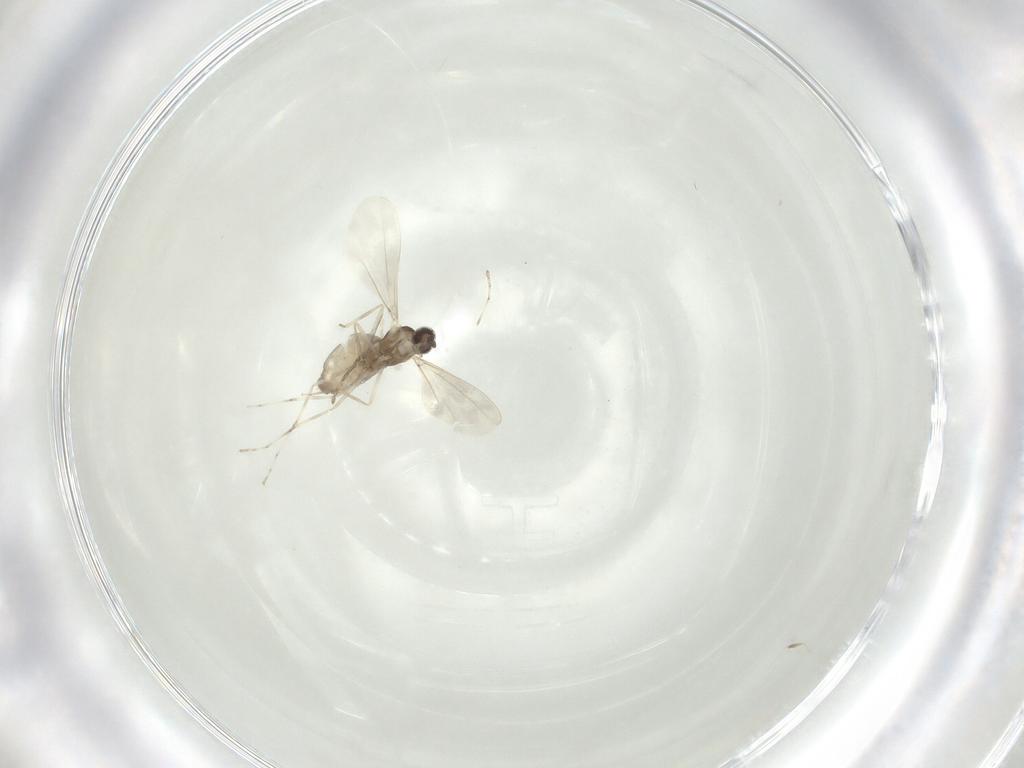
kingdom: Animalia
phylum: Arthropoda
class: Insecta
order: Diptera
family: Cecidomyiidae
